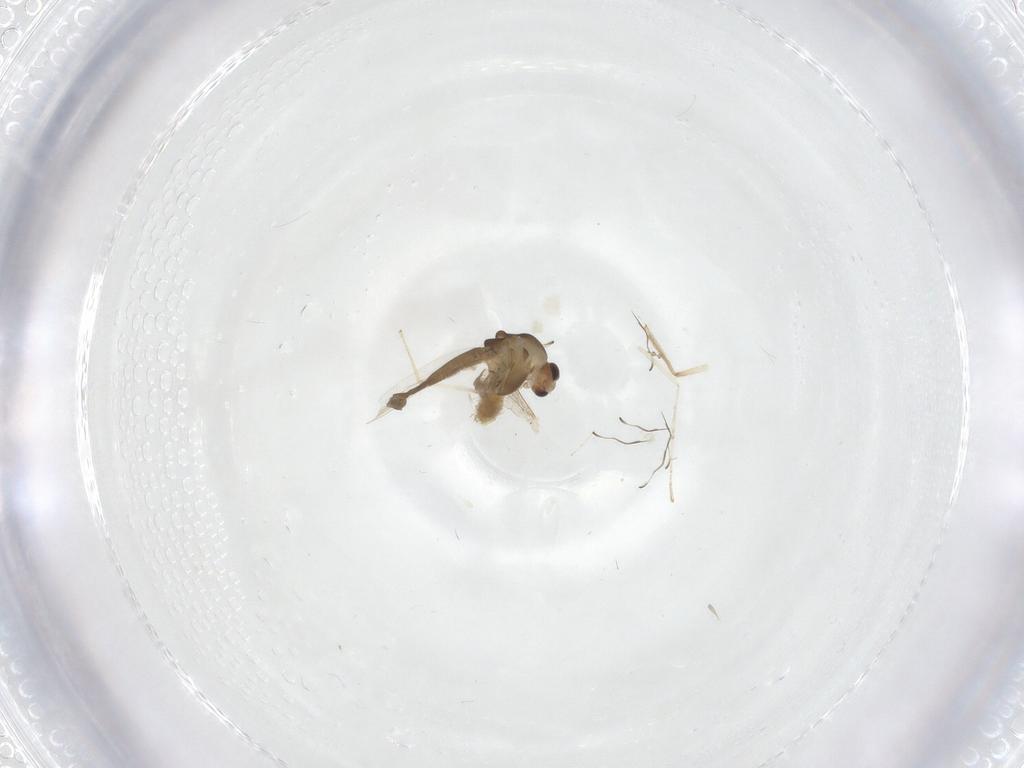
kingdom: Animalia
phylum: Arthropoda
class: Insecta
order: Diptera
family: Chironomidae
